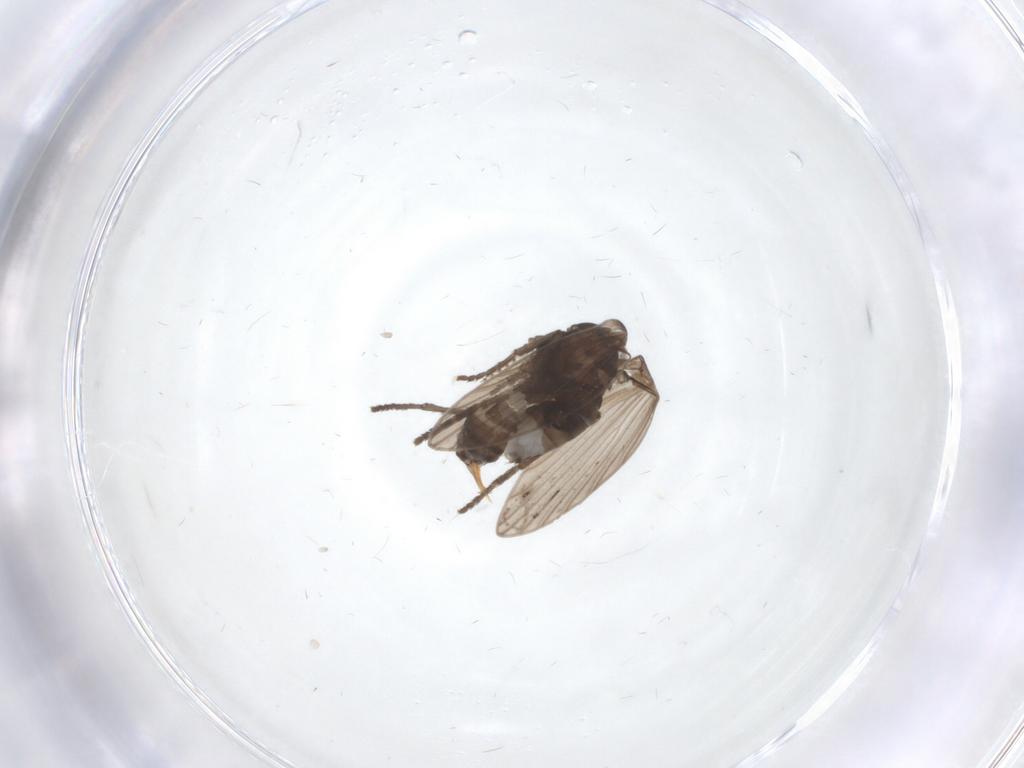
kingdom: Animalia
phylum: Arthropoda
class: Insecta
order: Diptera
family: Psychodidae
